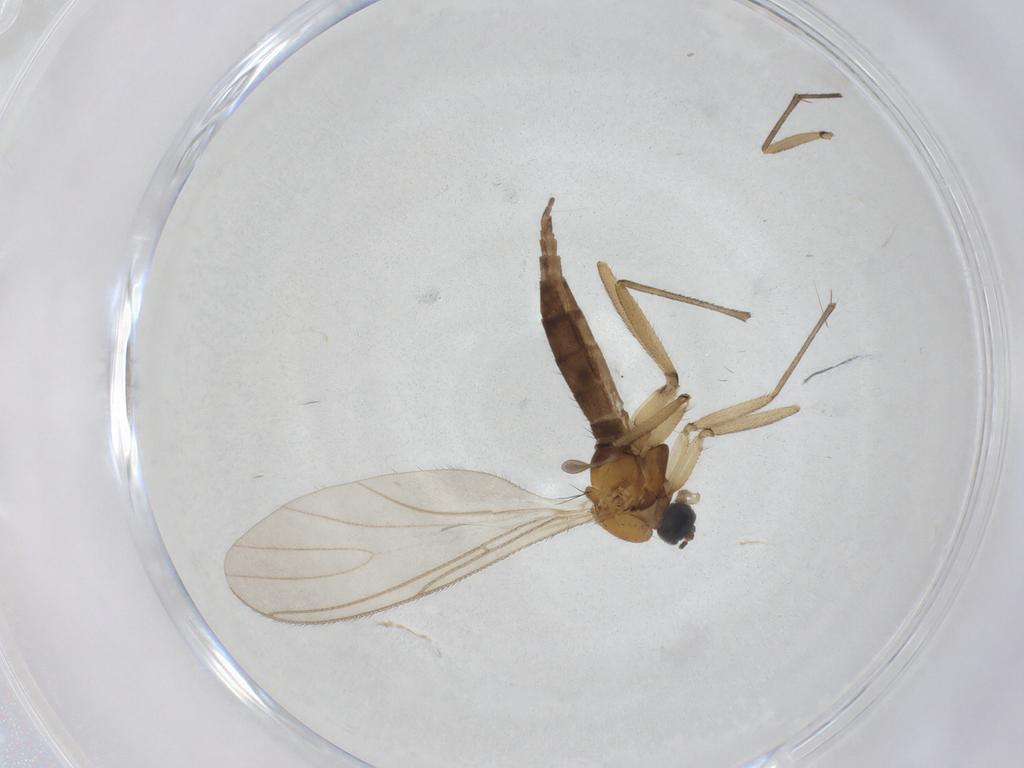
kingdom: Animalia
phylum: Arthropoda
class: Insecta
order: Diptera
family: Sciaridae
